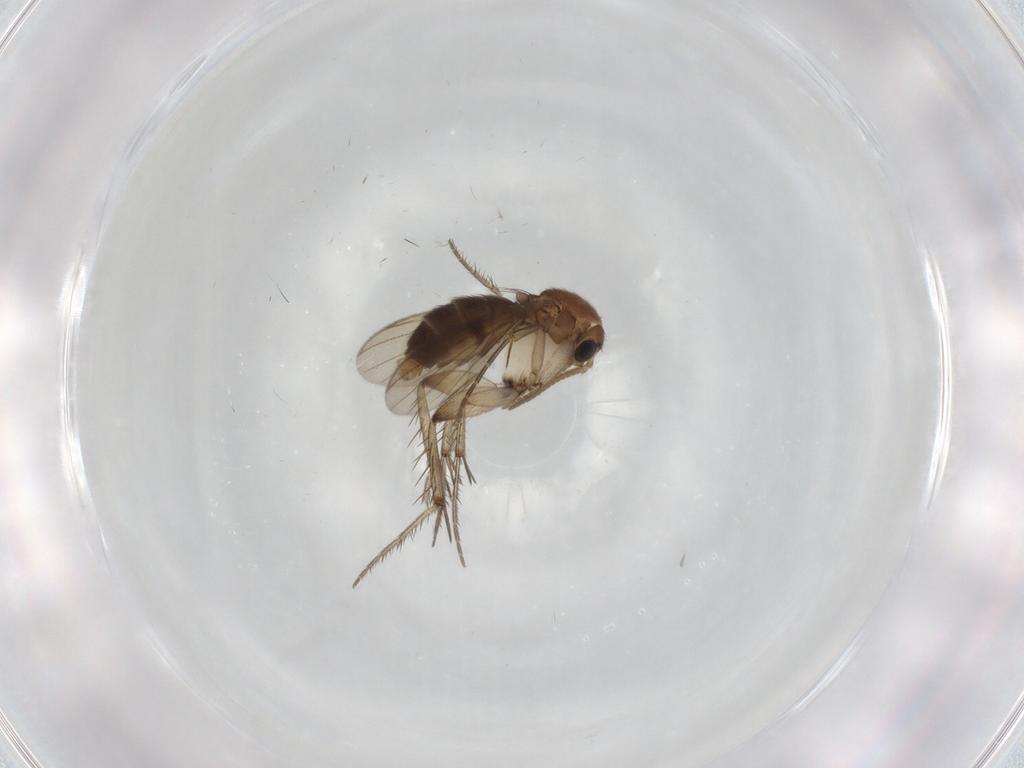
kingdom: Animalia
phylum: Arthropoda
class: Insecta
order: Diptera
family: Mycetophilidae
